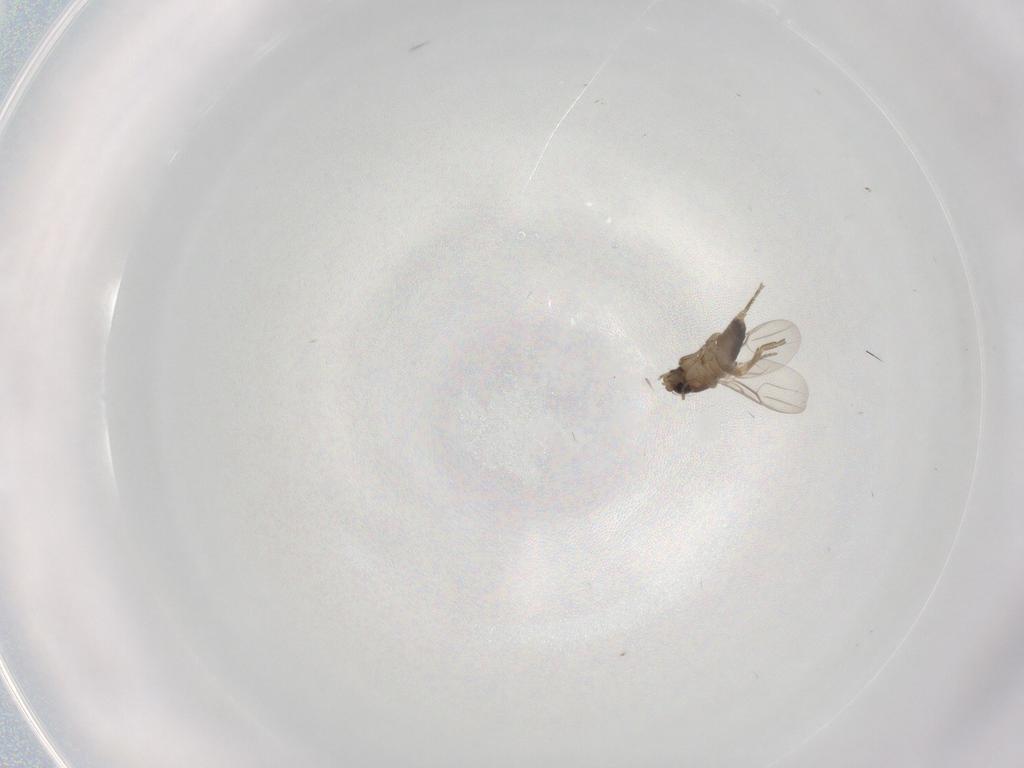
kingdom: Animalia
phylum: Arthropoda
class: Insecta
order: Diptera
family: Phoridae
